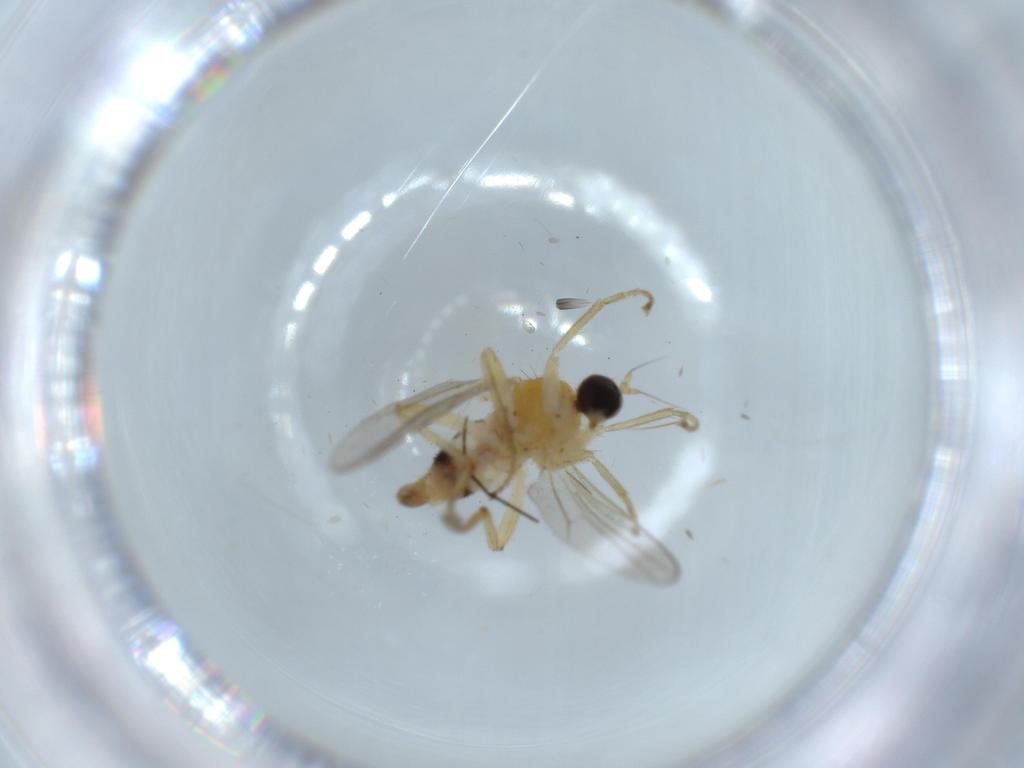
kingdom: Animalia
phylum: Arthropoda
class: Insecta
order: Diptera
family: Hybotidae
